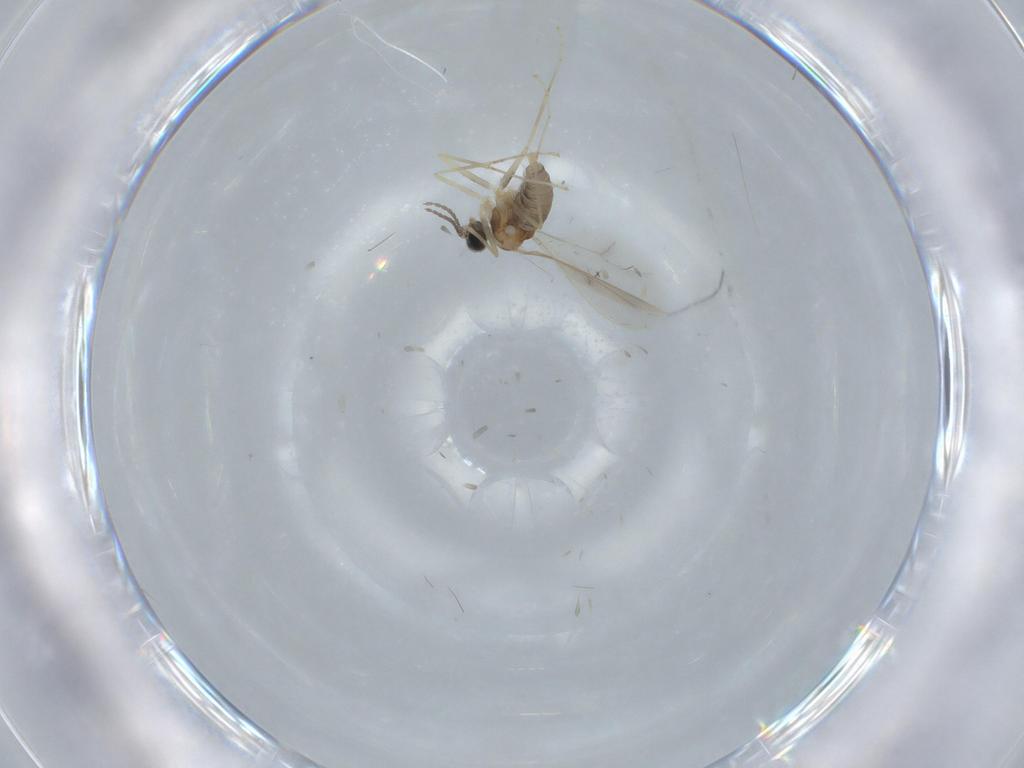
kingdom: Animalia
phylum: Arthropoda
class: Insecta
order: Diptera
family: Cecidomyiidae
